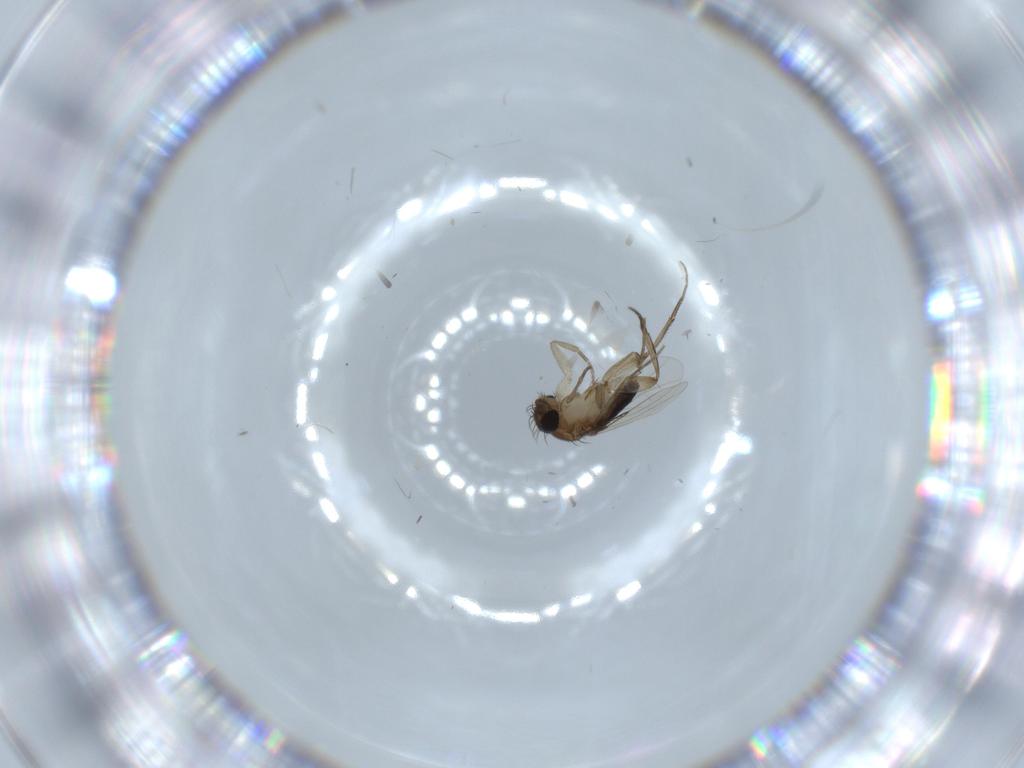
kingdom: Animalia
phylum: Arthropoda
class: Insecta
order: Diptera
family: Phoridae
